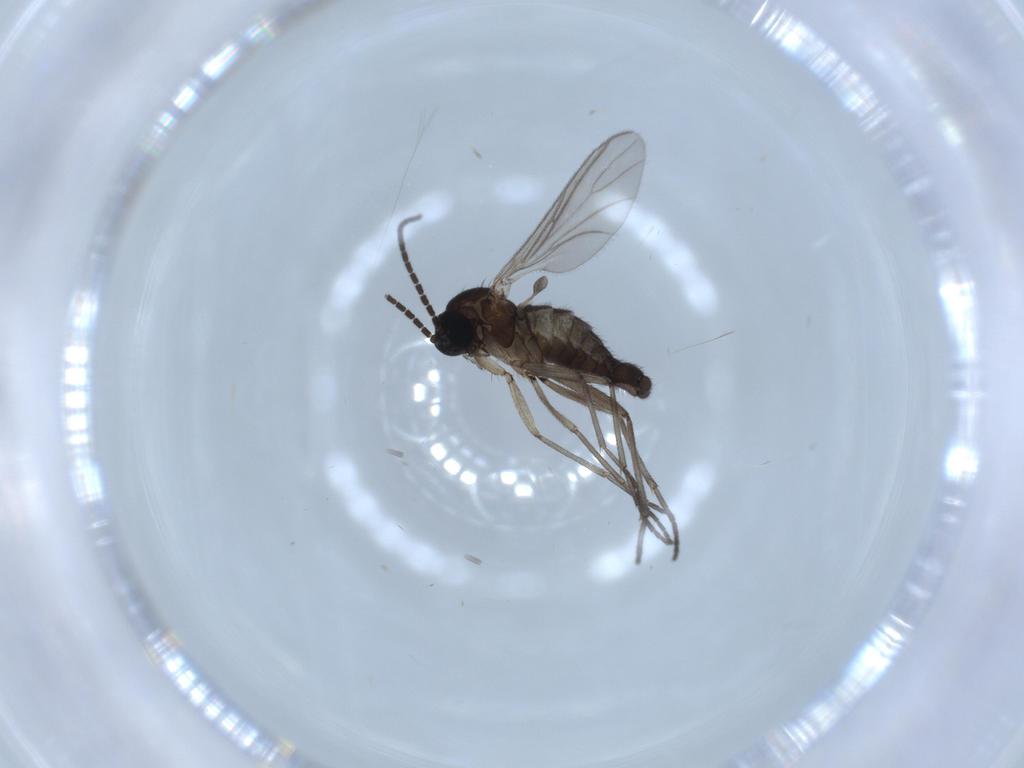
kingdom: Animalia
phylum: Arthropoda
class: Insecta
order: Diptera
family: Sciaridae
